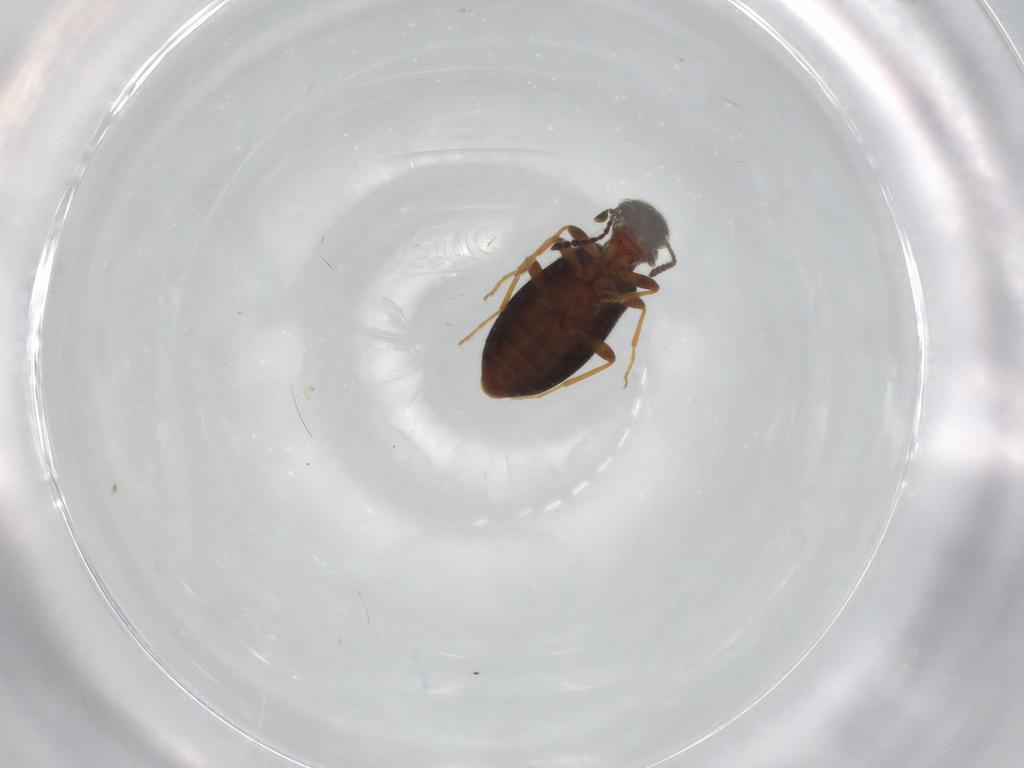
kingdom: Animalia
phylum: Arthropoda
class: Insecta
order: Coleoptera
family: Anthicidae
